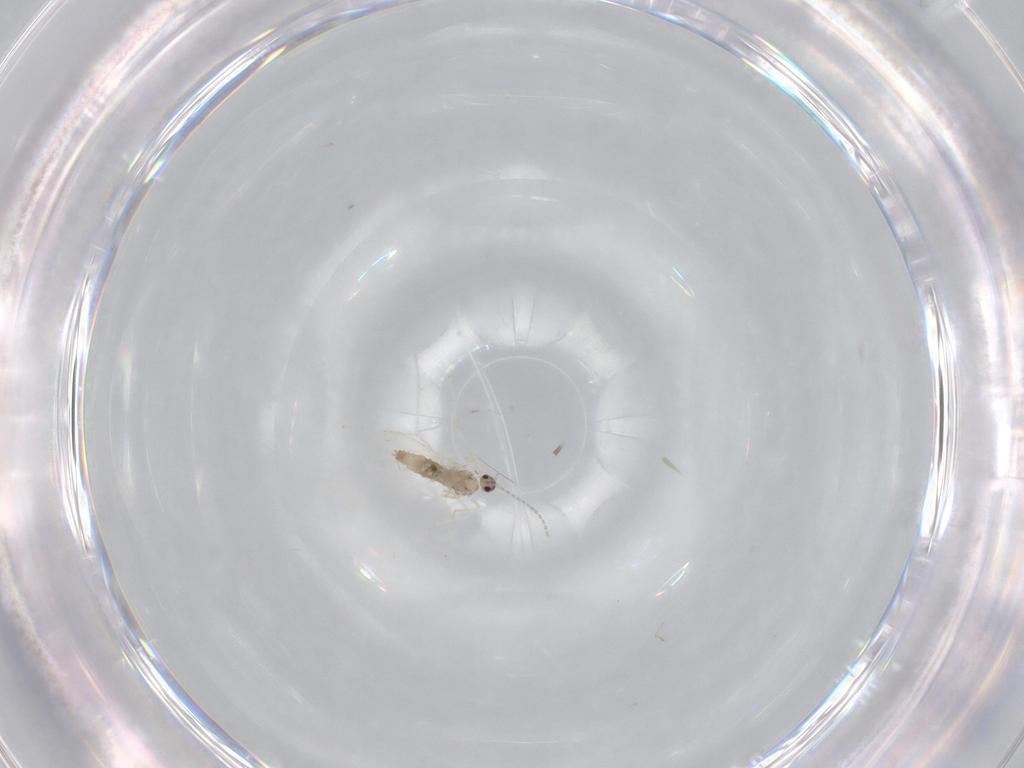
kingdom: Animalia
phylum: Arthropoda
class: Insecta
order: Diptera
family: Cecidomyiidae
